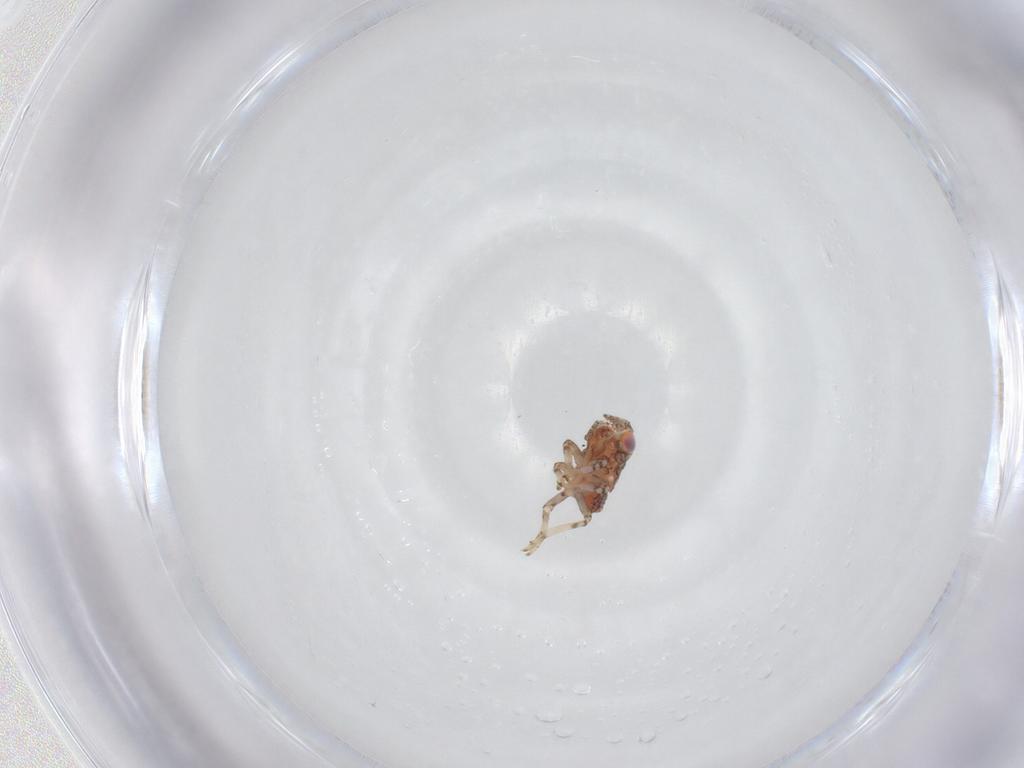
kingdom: Animalia
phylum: Arthropoda
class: Insecta
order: Hemiptera
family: Issidae
